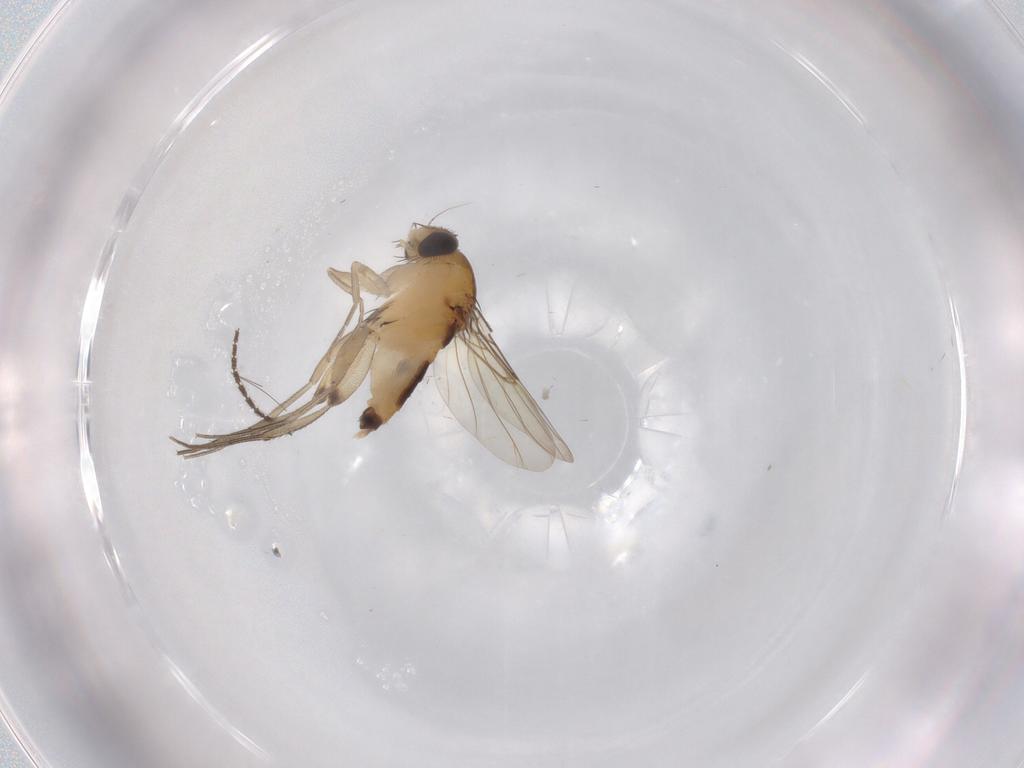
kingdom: Animalia
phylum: Arthropoda
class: Insecta
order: Diptera
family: Sciaridae
